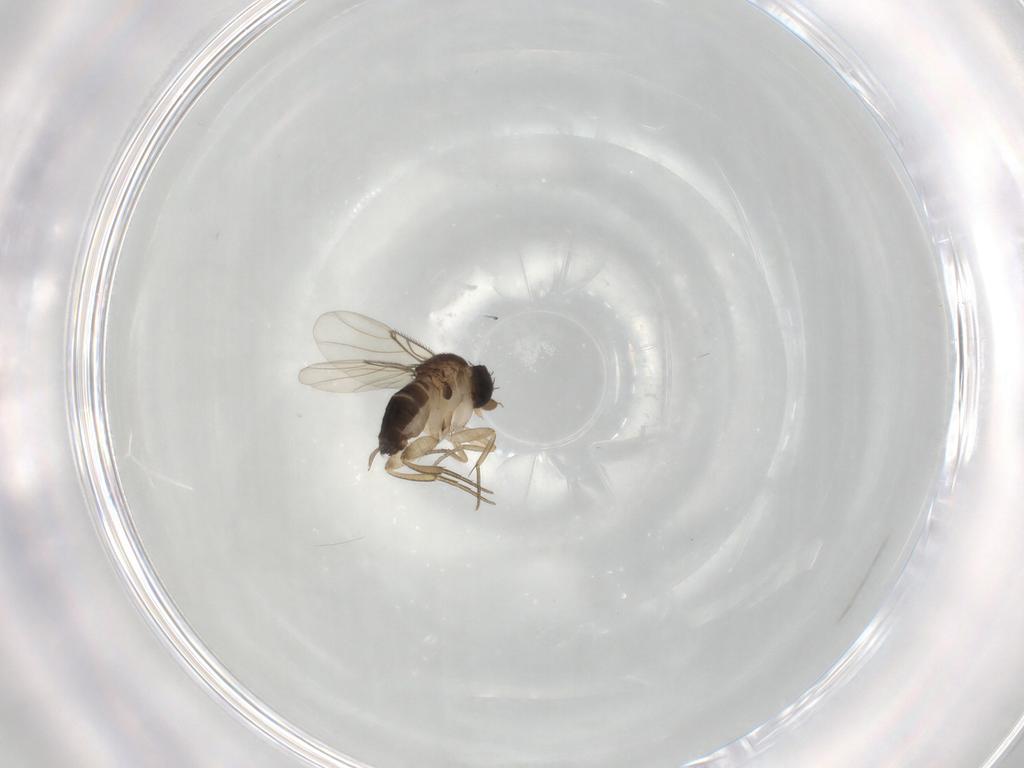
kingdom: Animalia
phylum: Arthropoda
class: Insecta
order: Diptera
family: Phoridae
